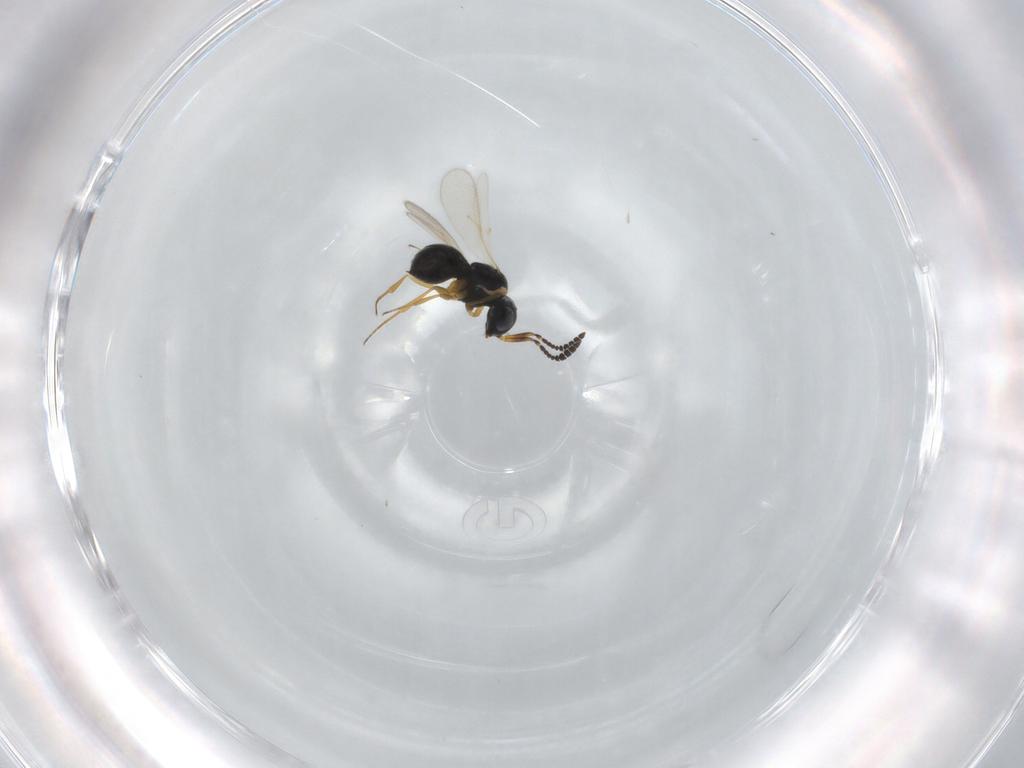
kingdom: Animalia
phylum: Arthropoda
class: Insecta
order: Hymenoptera
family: Scelionidae
